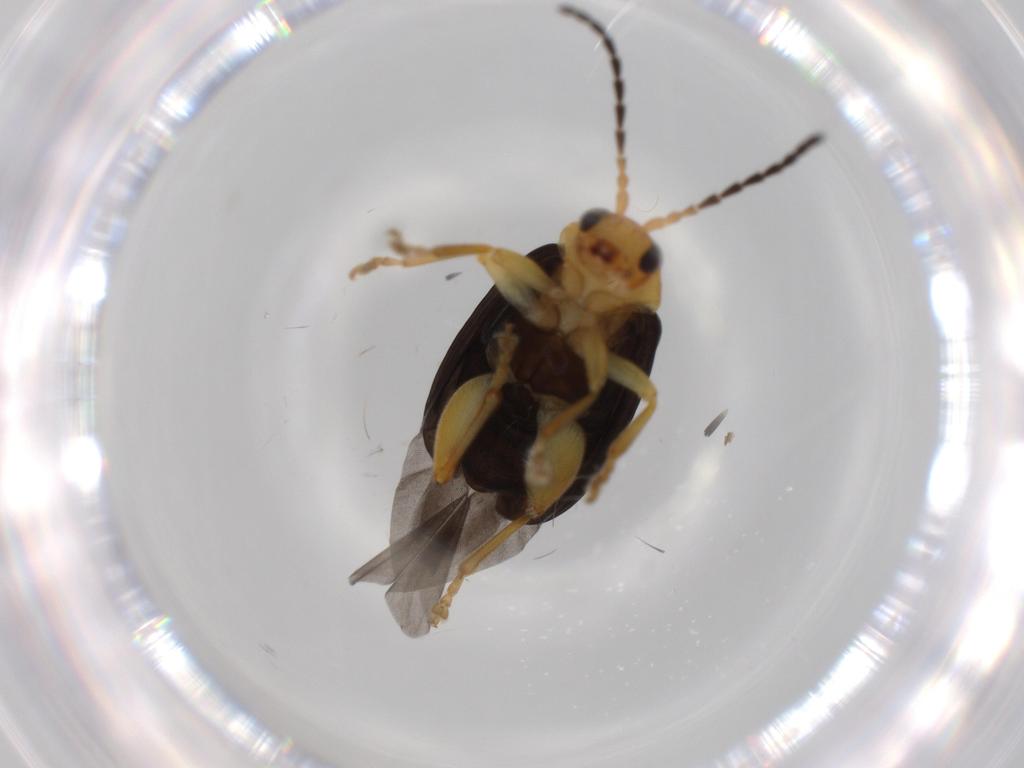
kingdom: Animalia
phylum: Arthropoda
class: Insecta
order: Coleoptera
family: Chrysomelidae
